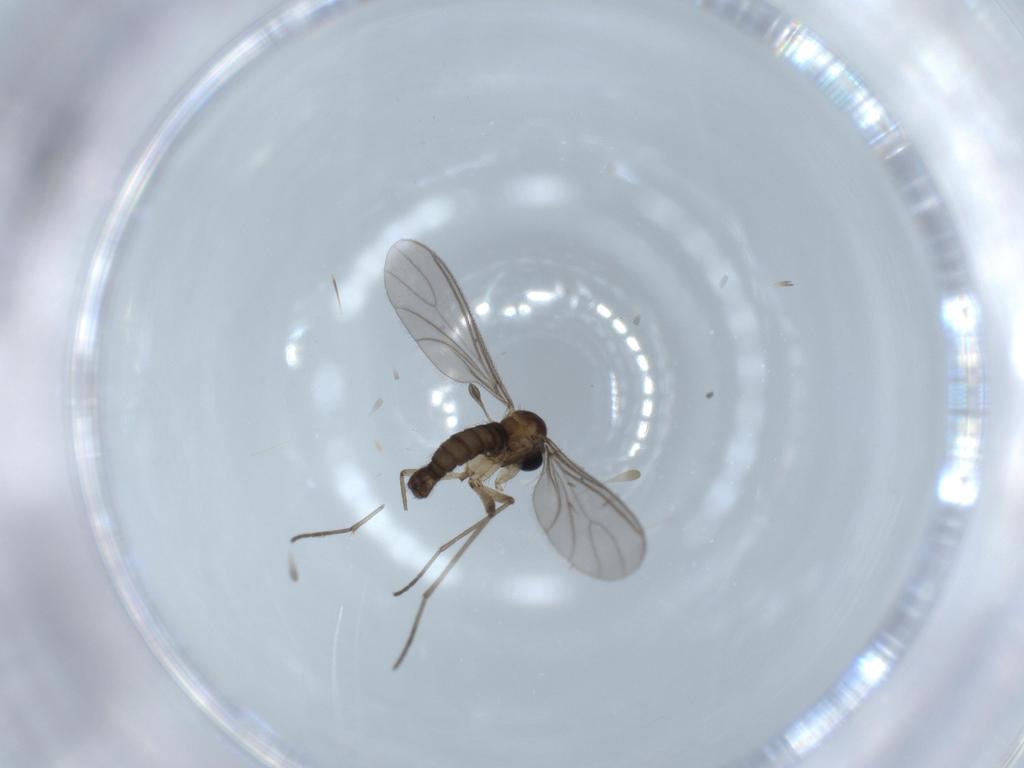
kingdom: Animalia
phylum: Arthropoda
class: Insecta
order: Diptera
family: Sciaridae
